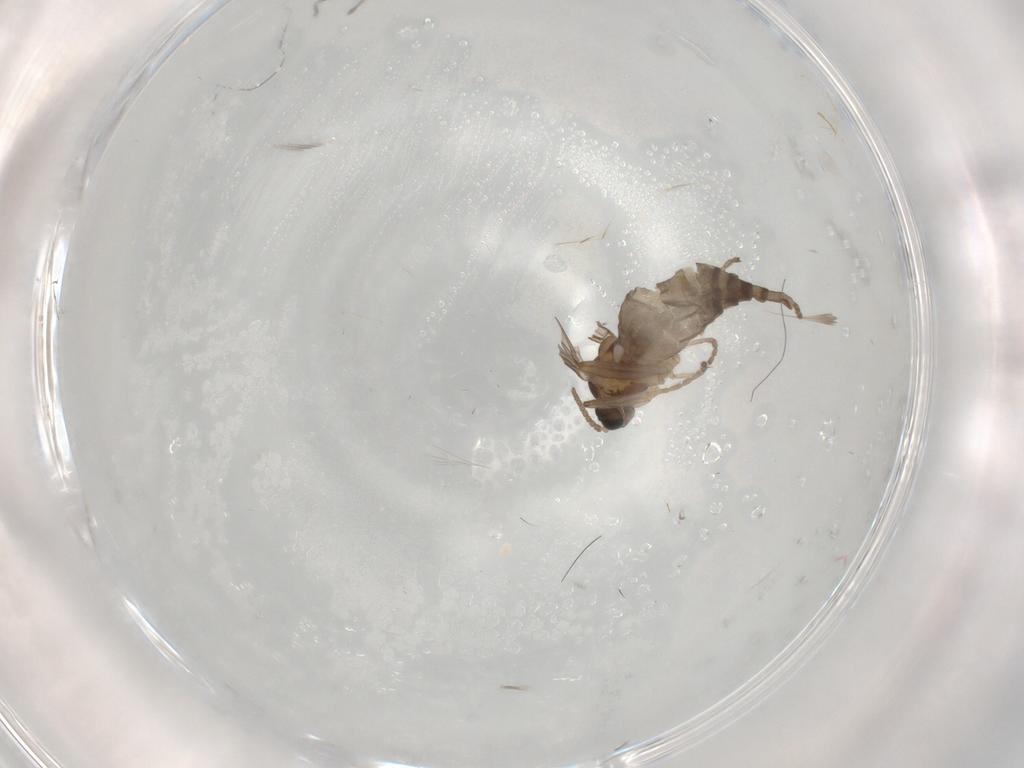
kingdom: Animalia
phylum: Arthropoda
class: Insecta
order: Diptera
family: Cecidomyiidae
